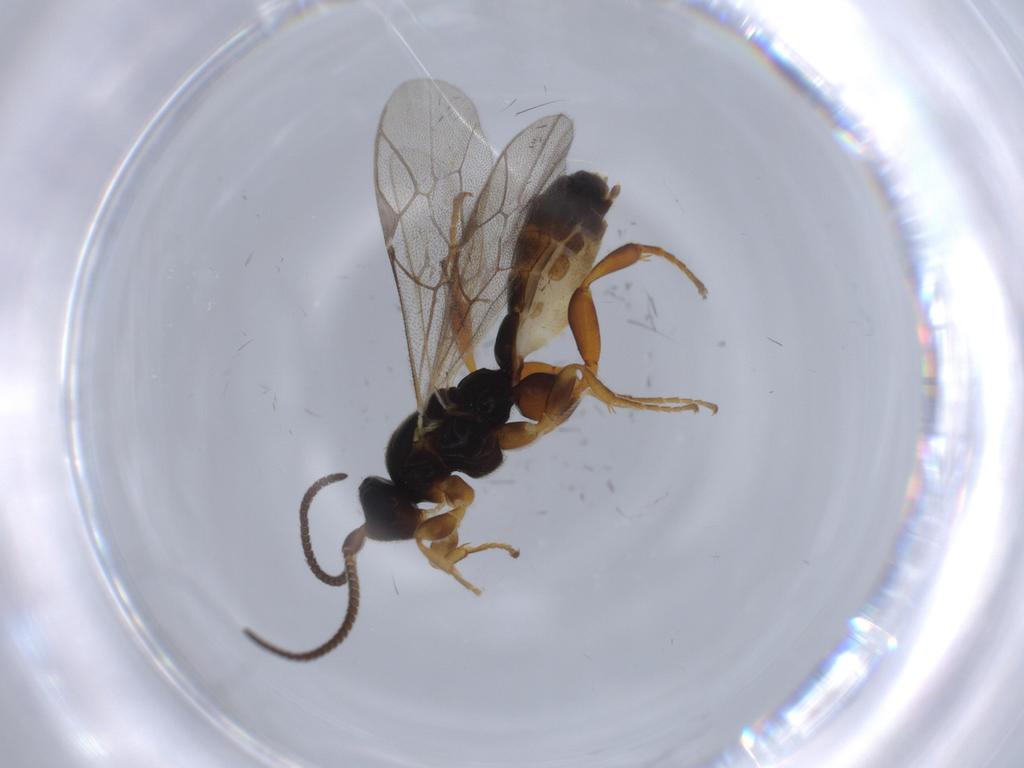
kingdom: Animalia
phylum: Arthropoda
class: Insecta
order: Hymenoptera
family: Ichneumonidae
